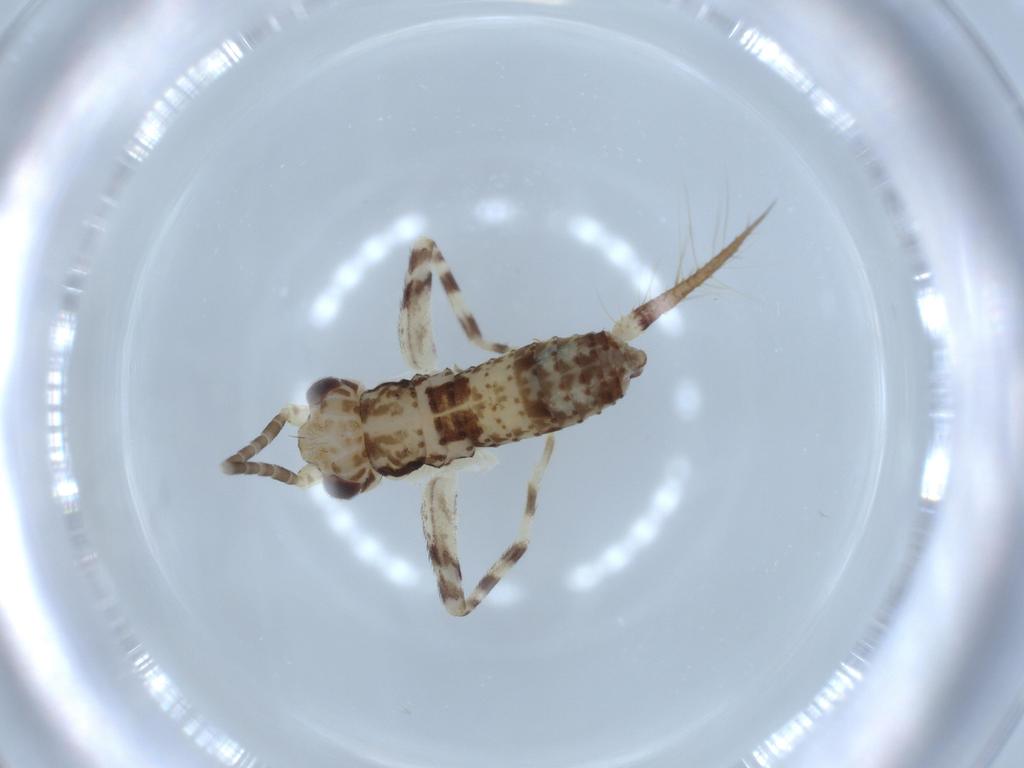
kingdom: Animalia
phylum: Arthropoda
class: Insecta
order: Orthoptera
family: Gryllidae
